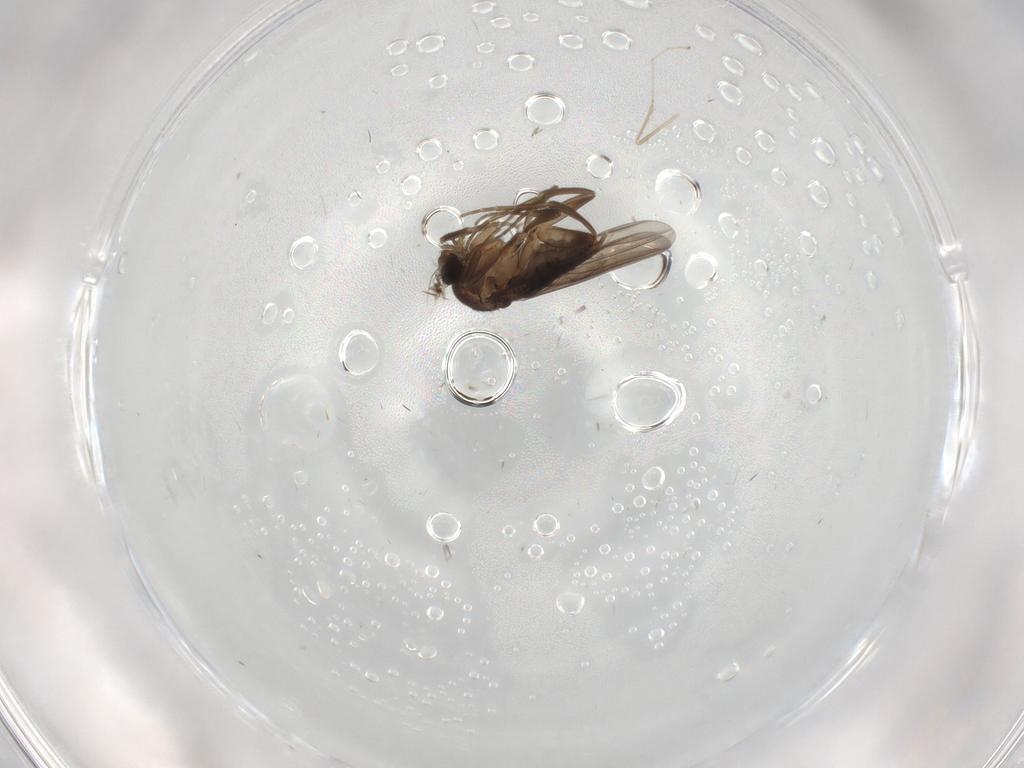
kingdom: Animalia
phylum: Arthropoda
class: Insecta
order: Diptera
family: Phoridae
